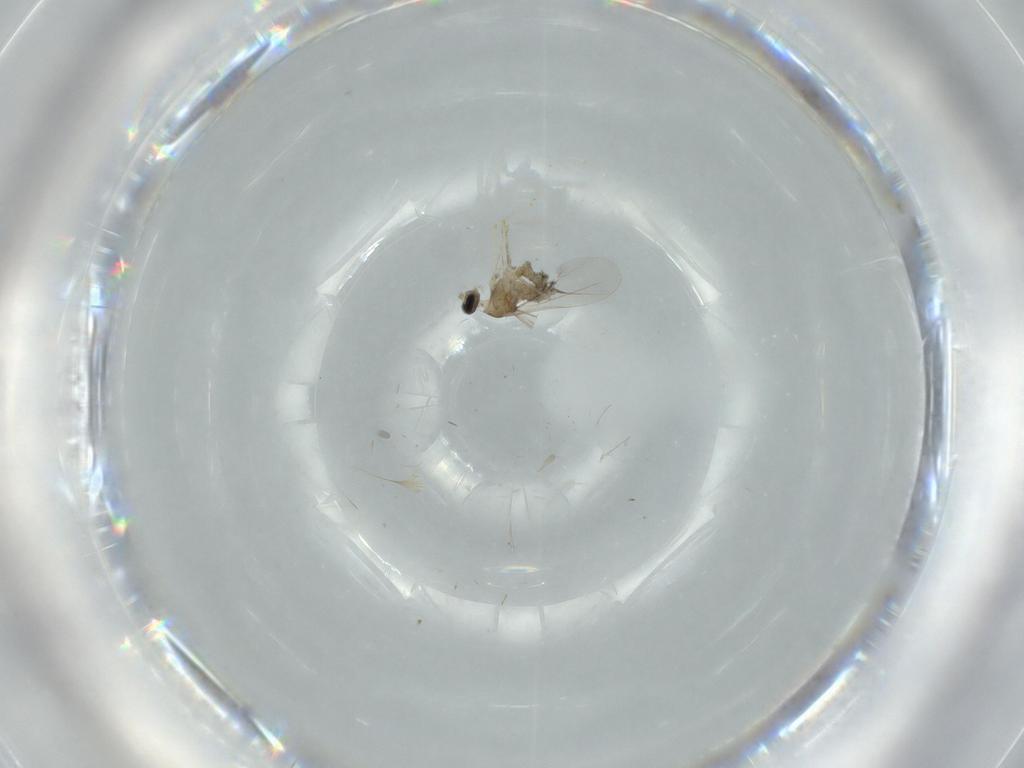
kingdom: Animalia
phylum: Arthropoda
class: Insecta
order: Diptera
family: Cecidomyiidae
